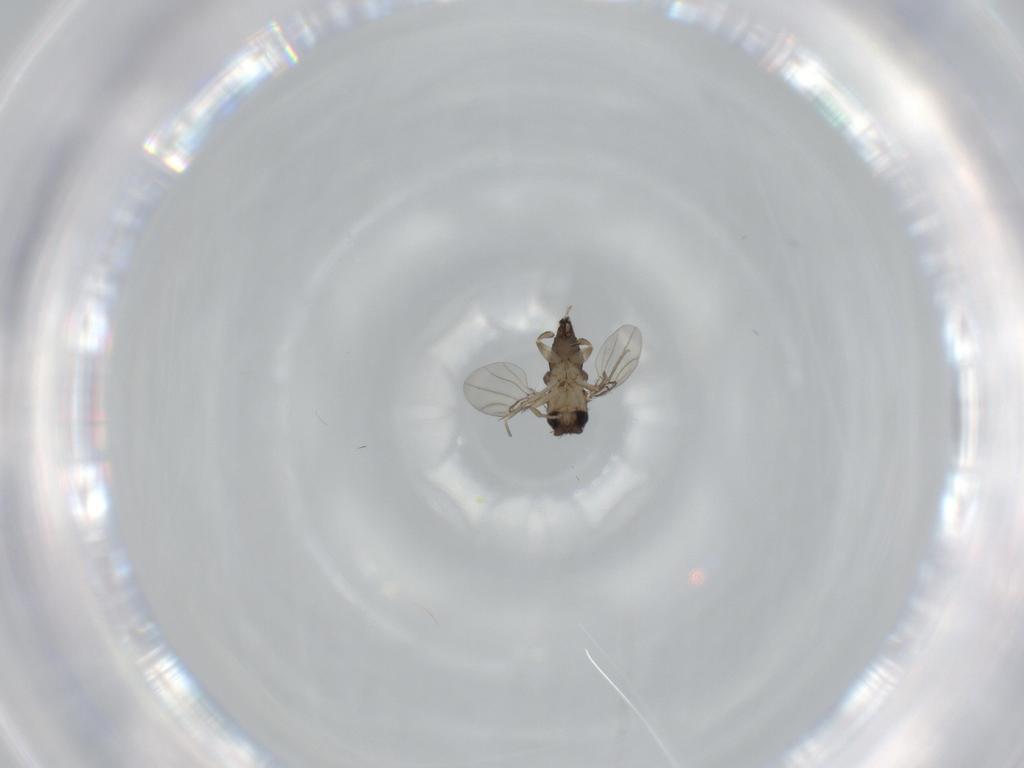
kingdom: Animalia
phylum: Arthropoda
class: Insecta
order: Diptera
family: Phoridae
